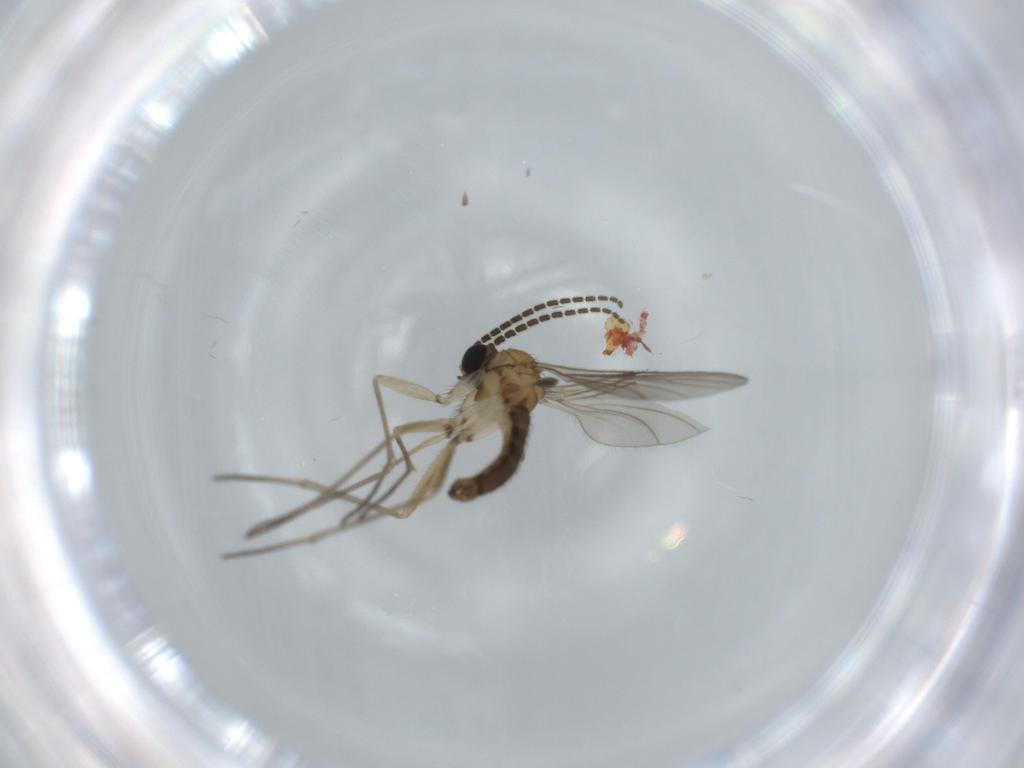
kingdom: Animalia
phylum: Arthropoda
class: Insecta
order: Diptera
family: Sciaridae
